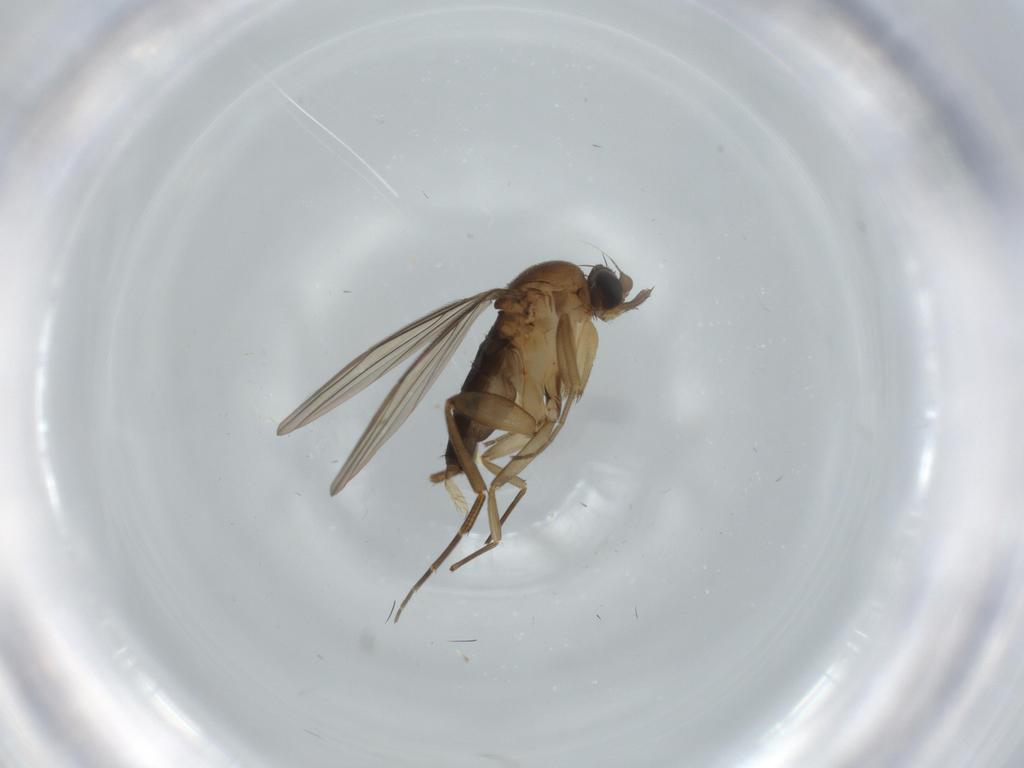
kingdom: Animalia
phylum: Arthropoda
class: Insecta
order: Diptera
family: Phoridae
